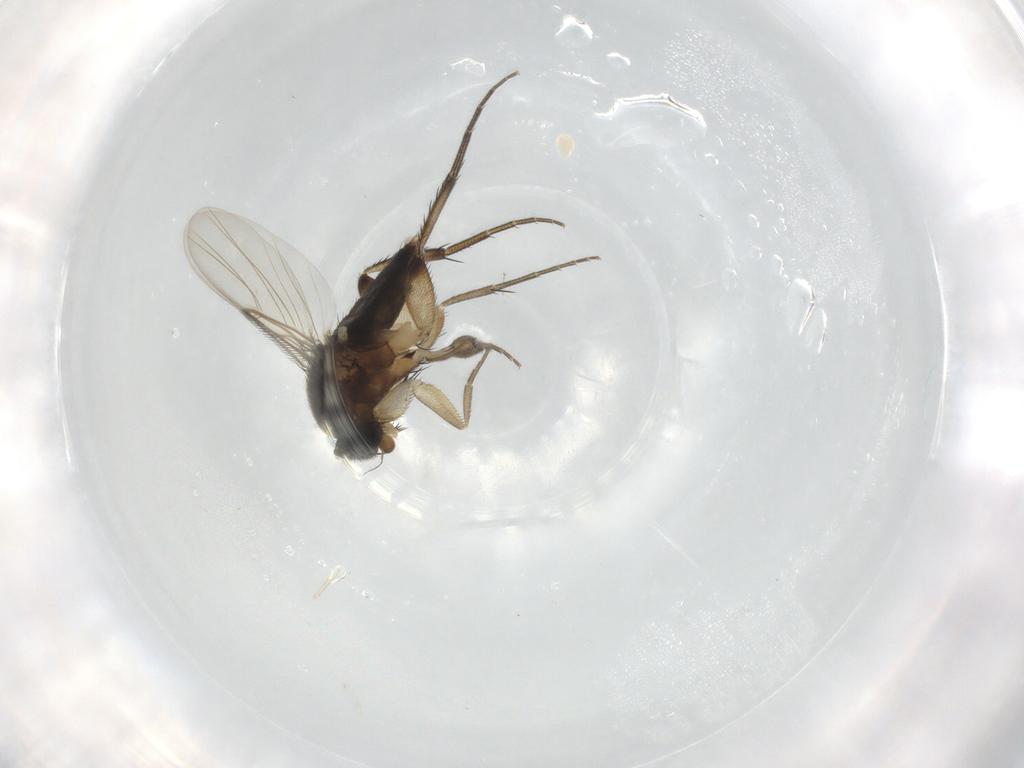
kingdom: Animalia
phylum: Arthropoda
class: Insecta
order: Diptera
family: Phoridae
